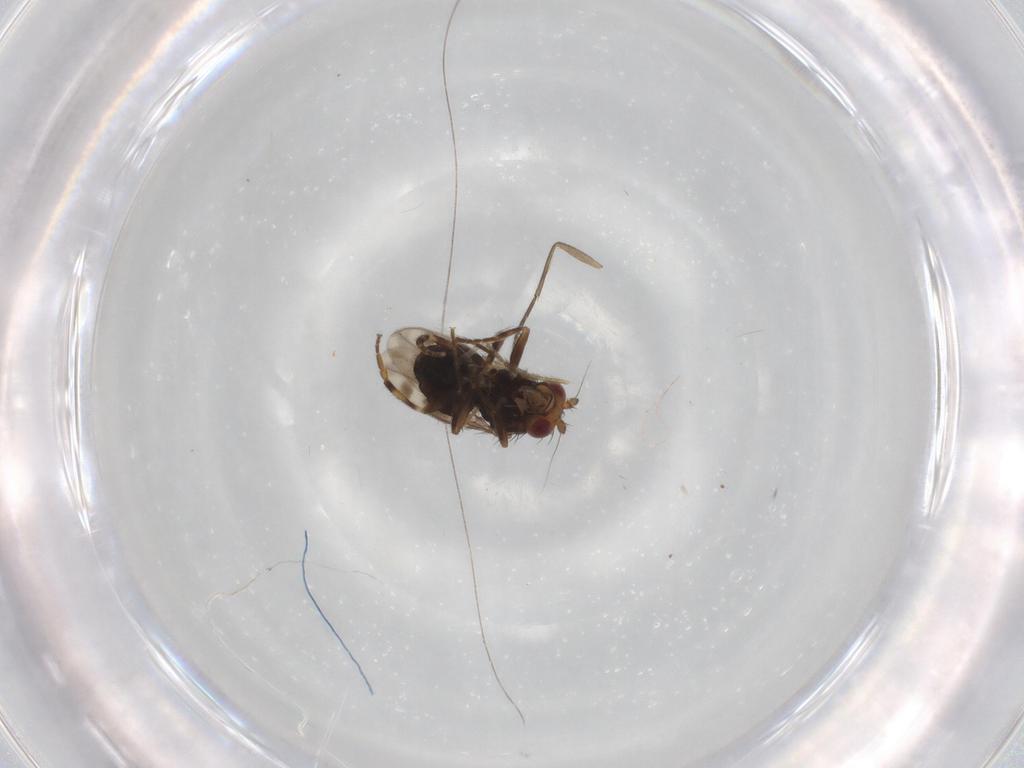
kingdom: Animalia
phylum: Arthropoda
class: Insecta
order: Diptera
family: Sphaeroceridae
